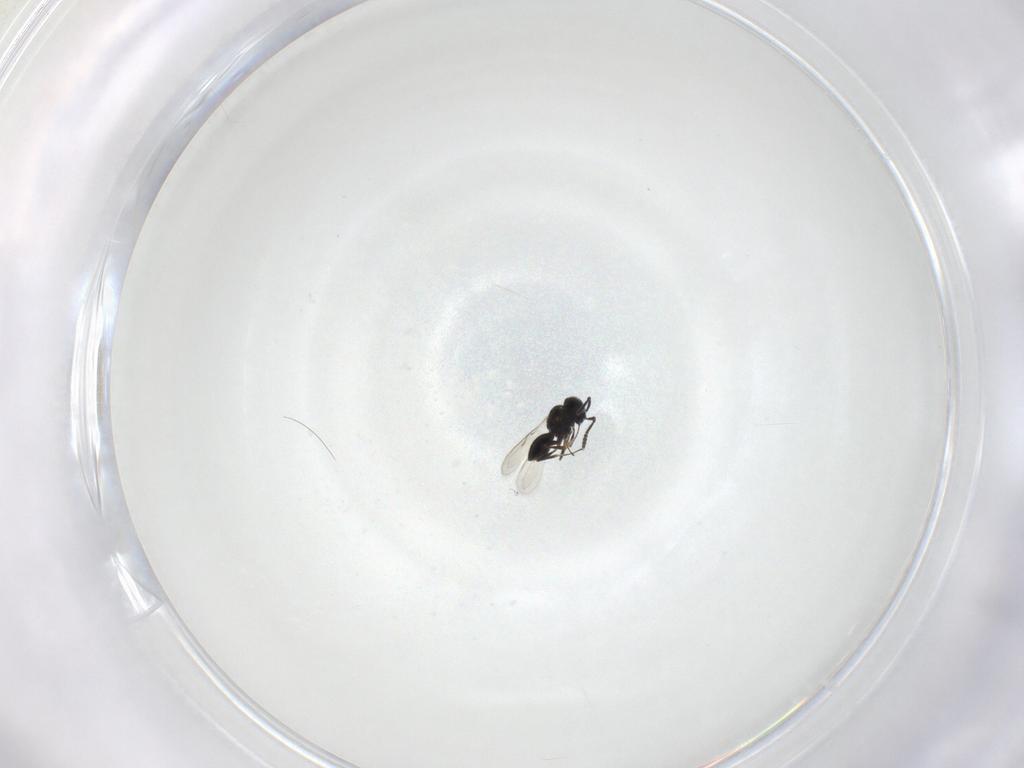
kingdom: Animalia
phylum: Arthropoda
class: Insecta
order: Hymenoptera
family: Scelionidae
